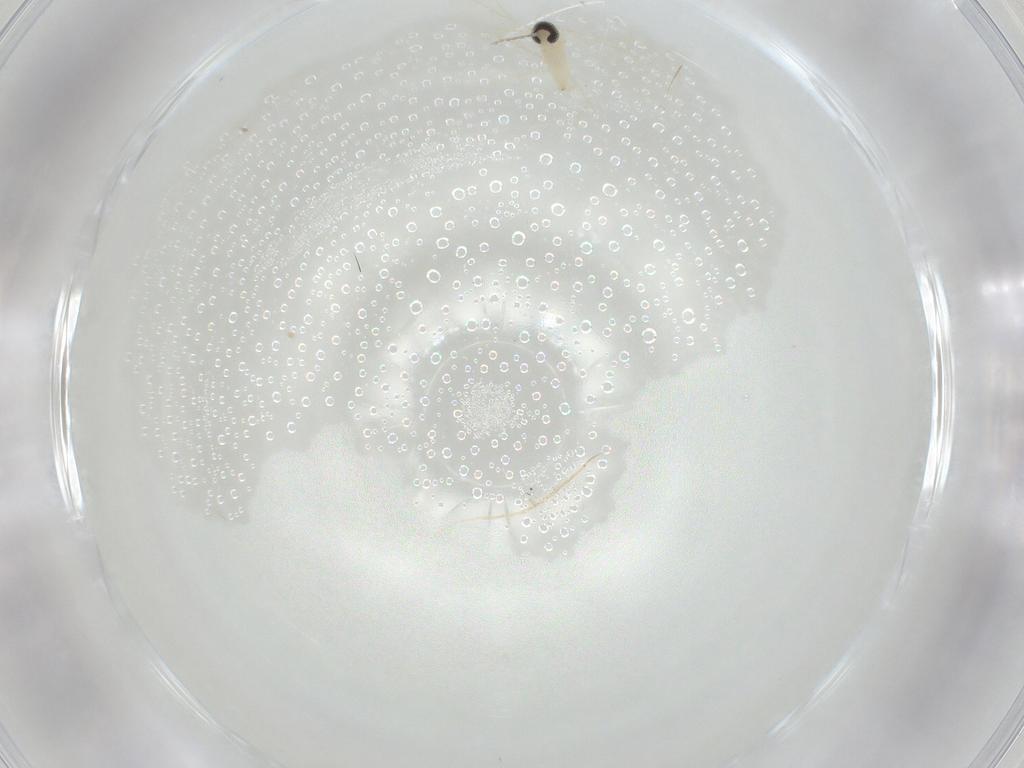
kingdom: Animalia
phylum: Arthropoda
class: Insecta
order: Diptera
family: Cecidomyiidae
